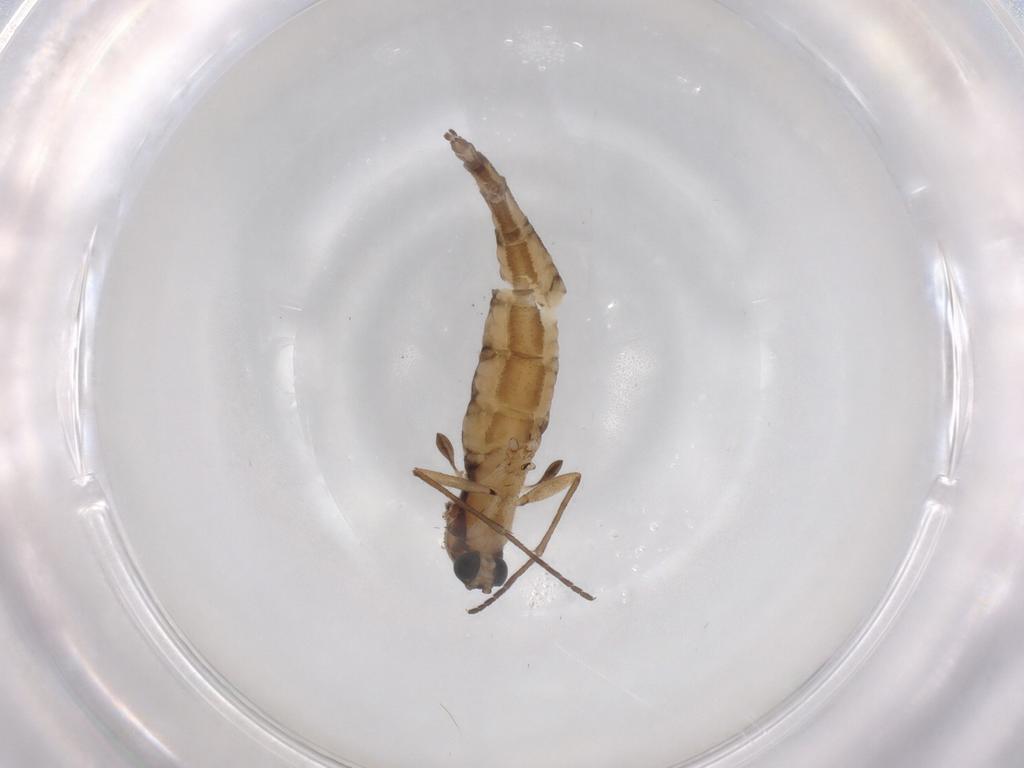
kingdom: Animalia
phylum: Arthropoda
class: Insecta
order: Diptera
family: Sciaridae
